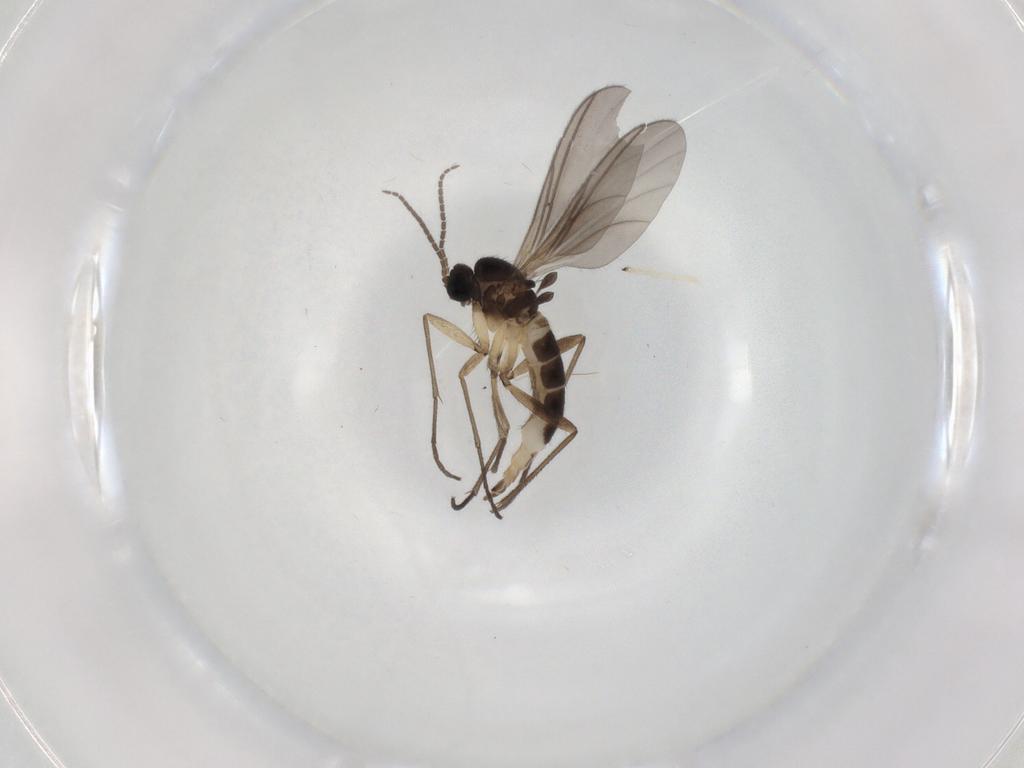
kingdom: Animalia
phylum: Arthropoda
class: Insecta
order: Diptera
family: Sciaridae
